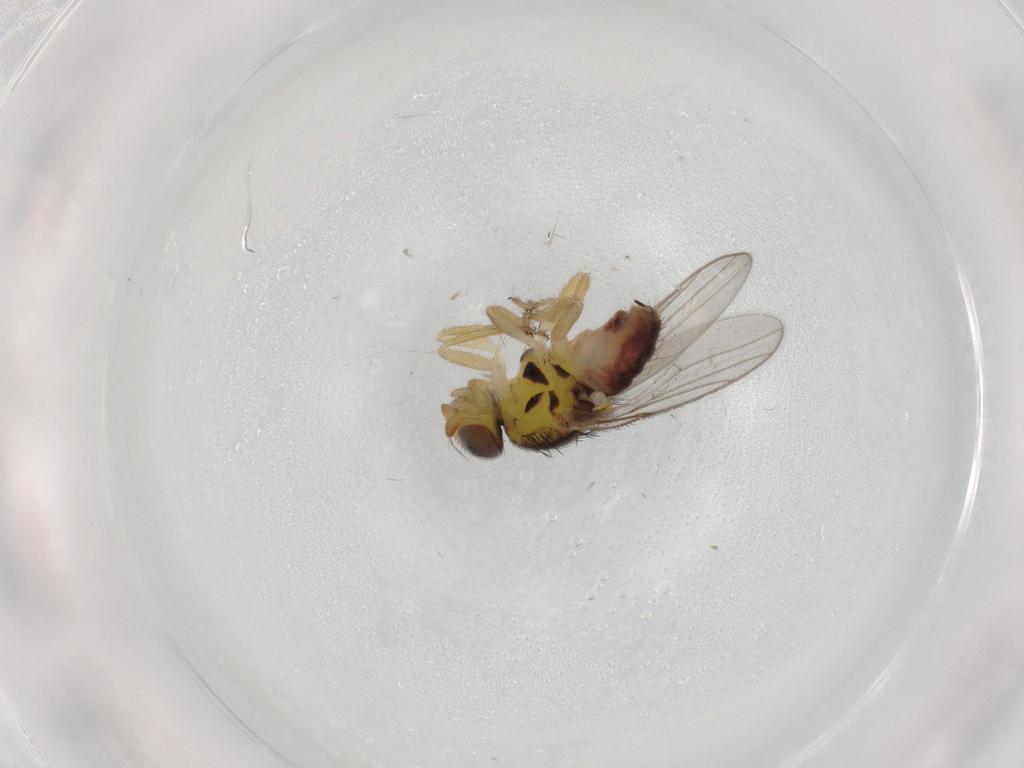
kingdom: Animalia
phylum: Arthropoda
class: Insecta
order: Diptera
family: Chloropidae
